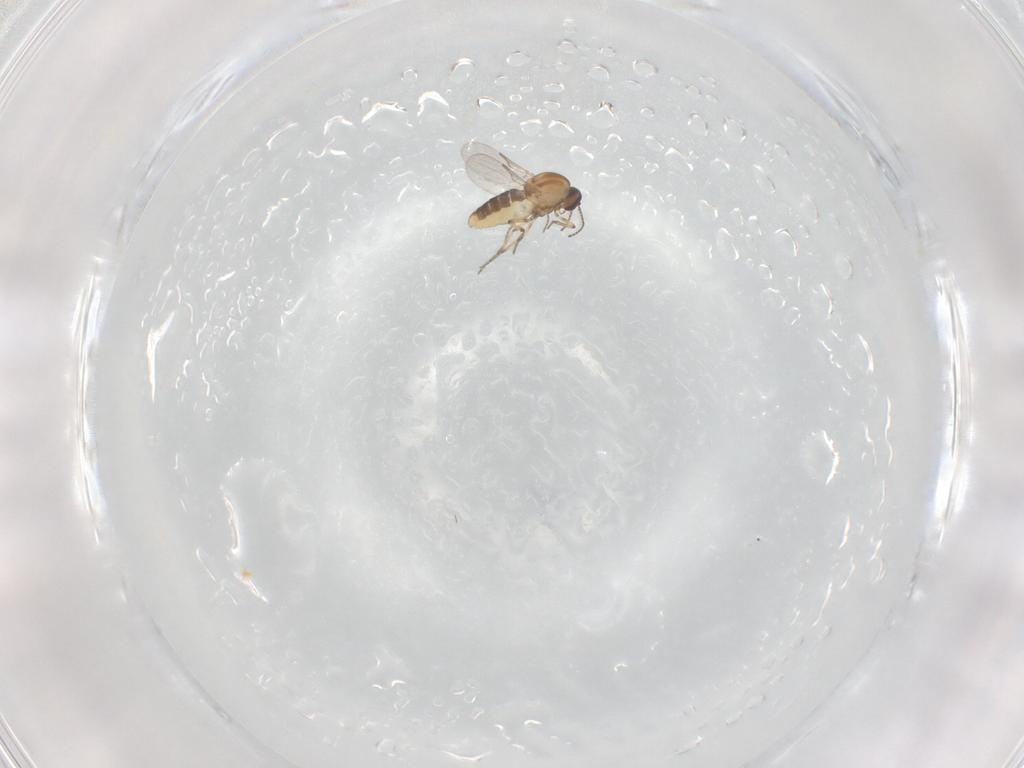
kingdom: Animalia
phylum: Arthropoda
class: Insecta
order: Diptera
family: Ceratopogonidae
